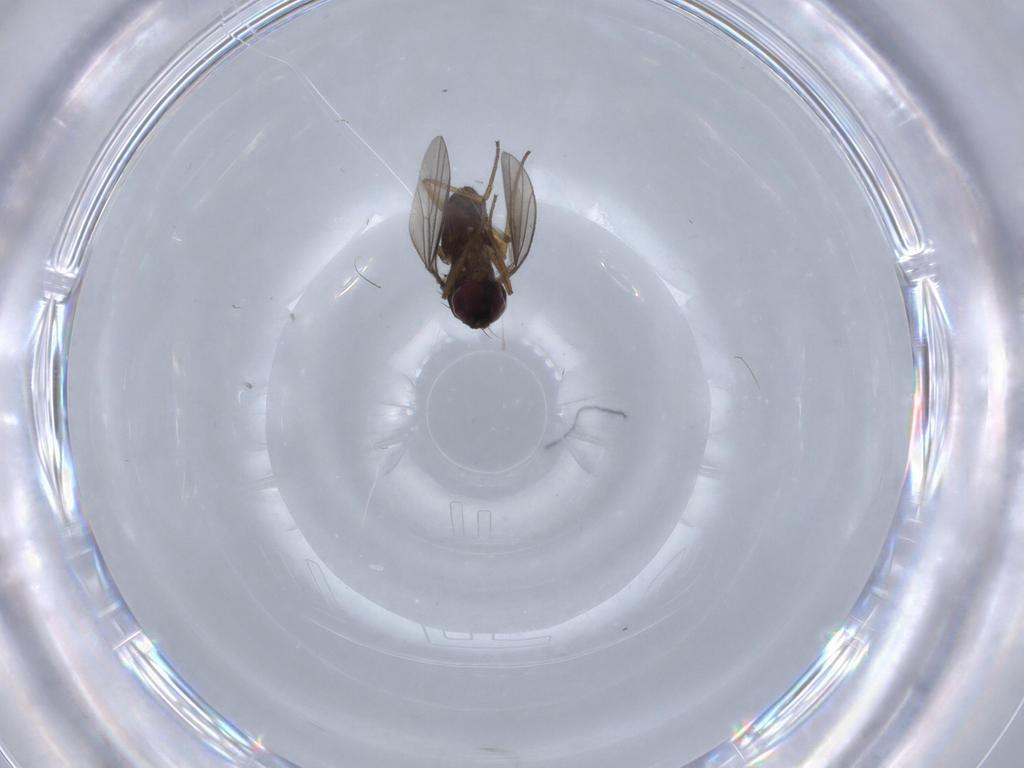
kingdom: Animalia
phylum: Arthropoda
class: Insecta
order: Diptera
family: Dolichopodidae
